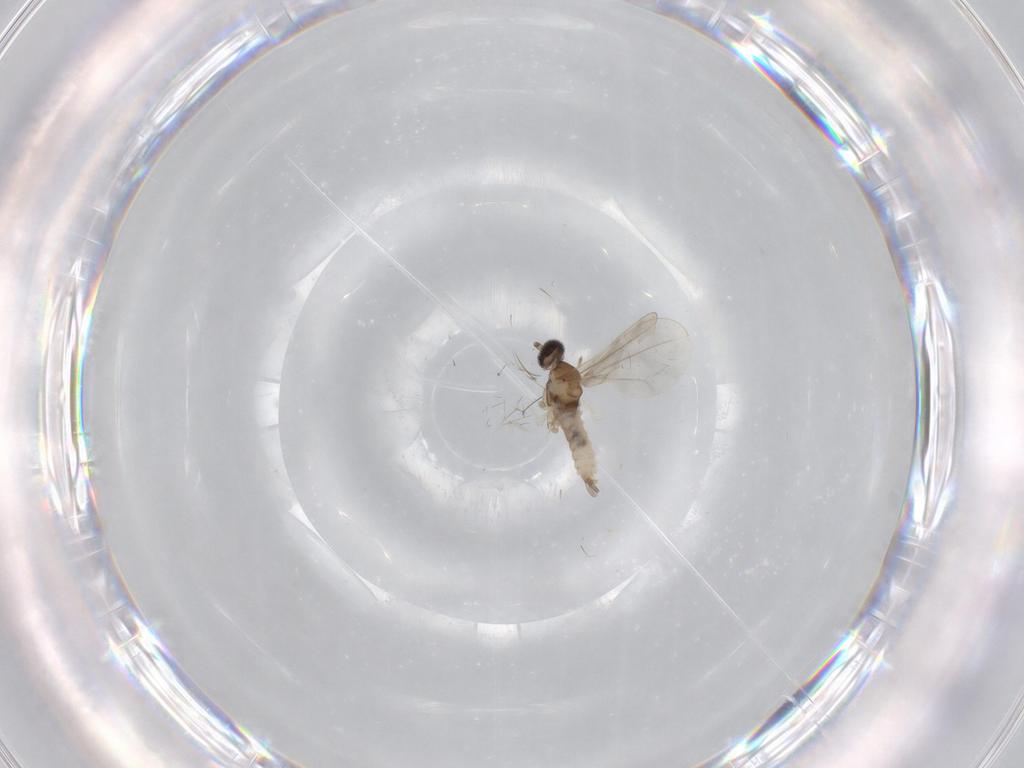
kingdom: Animalia
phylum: Arthropoda
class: Insecta
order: Diptera
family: Cecidomyiidae
